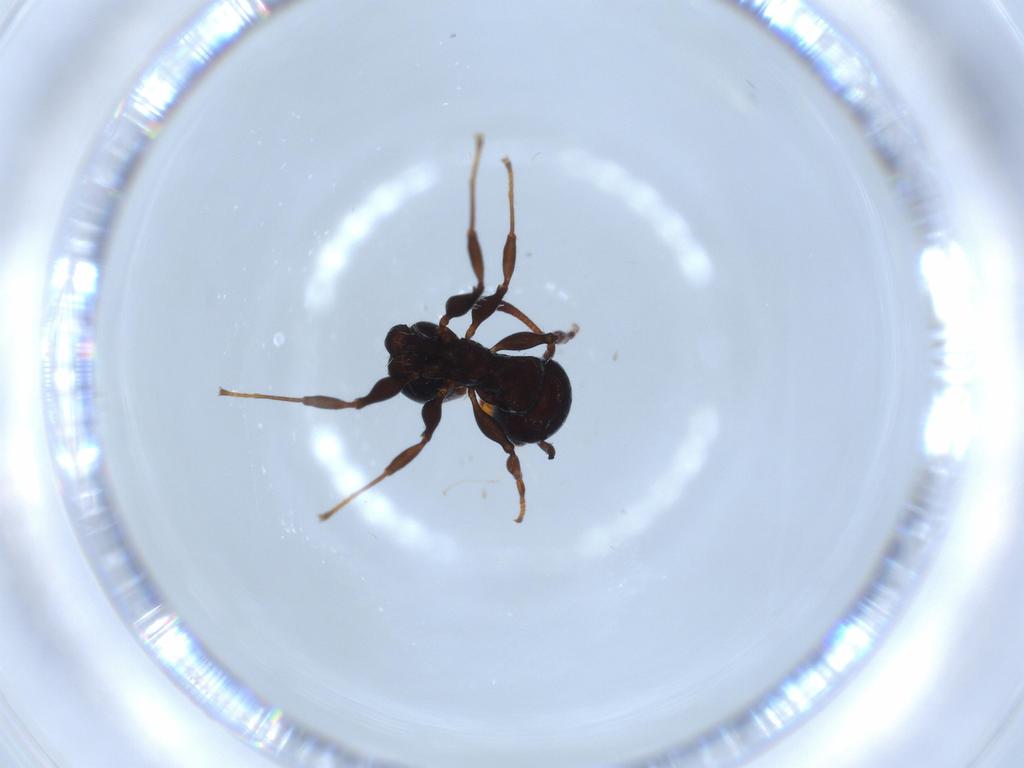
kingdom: Animalia
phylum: Arthropoda
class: Insecta
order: Hymenoptera
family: Formicidae
